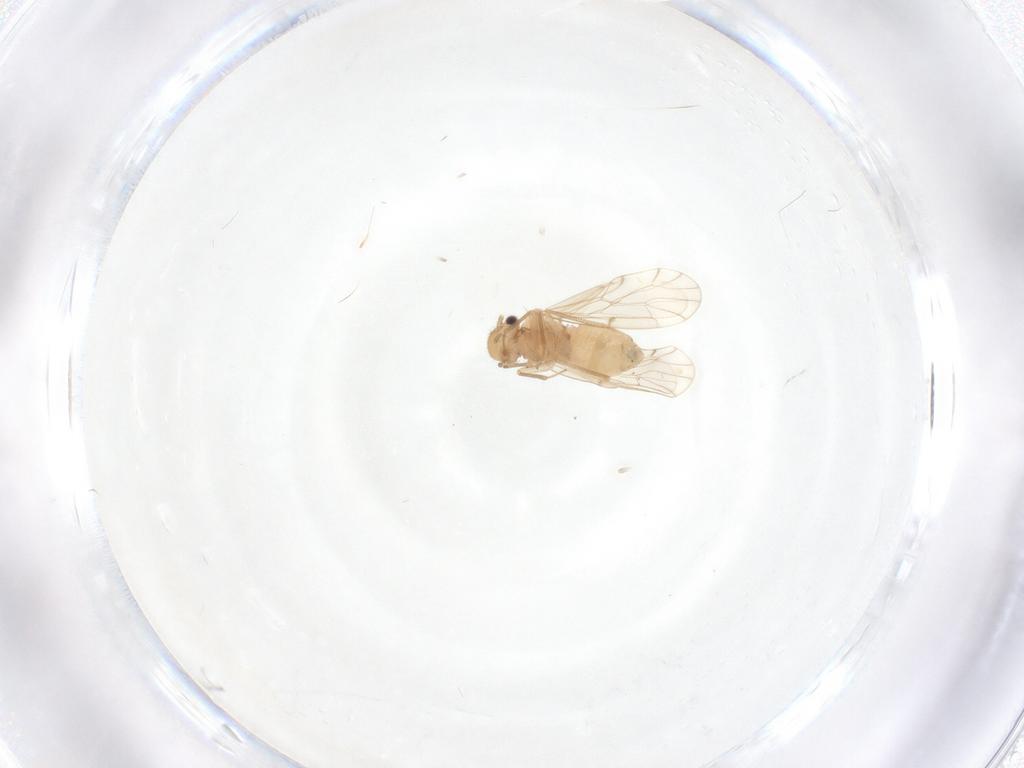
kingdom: Animalia
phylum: Arthropoda
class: Insecta
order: Psocodea
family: Ectopsocidae
